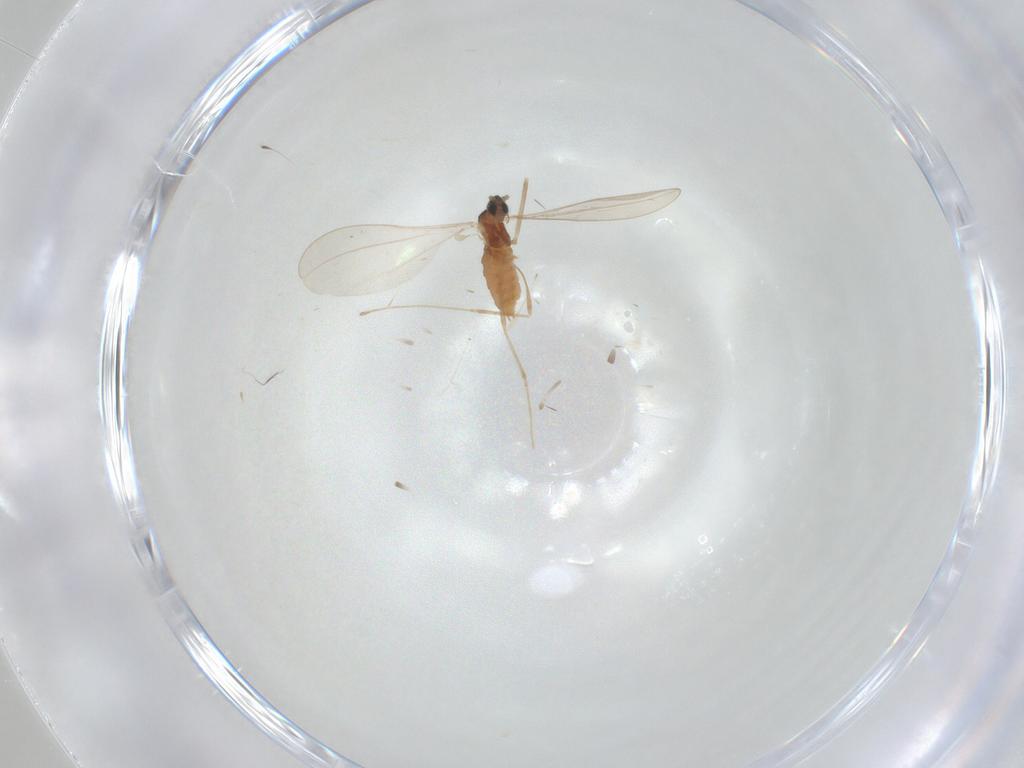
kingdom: Animalia
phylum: Arthropoda
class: Insecta
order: Diptera
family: Cecidomyiidae
